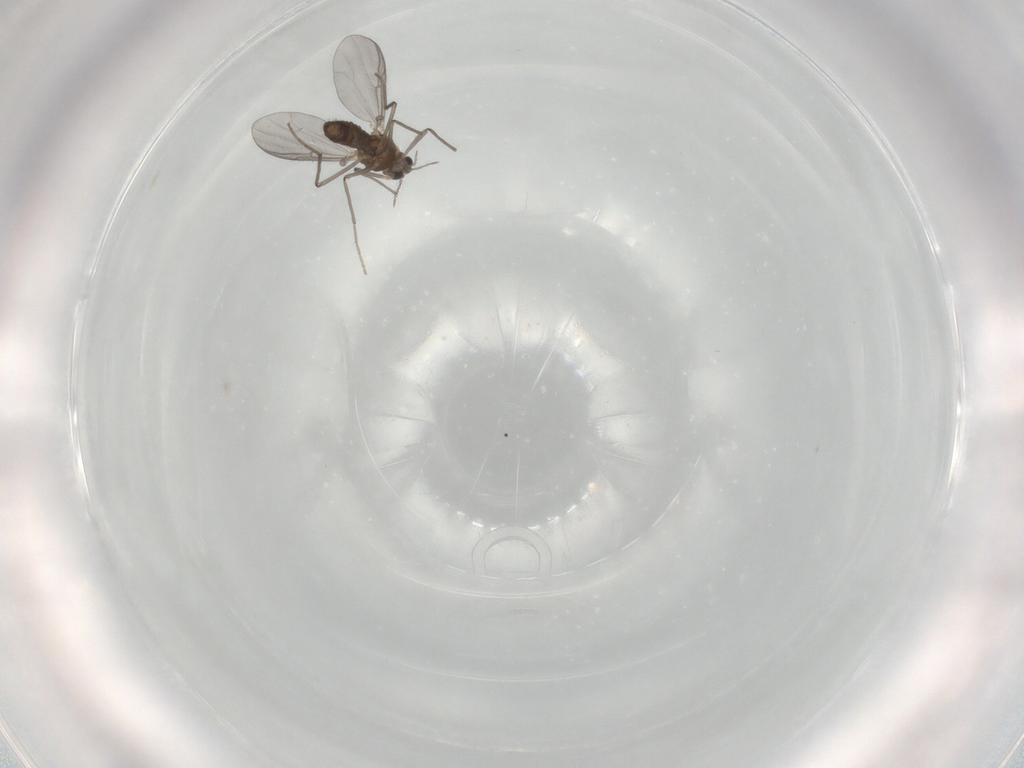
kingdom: Animalia
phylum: Arthropoda
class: Insecta
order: Diptera
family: Chironomidae
